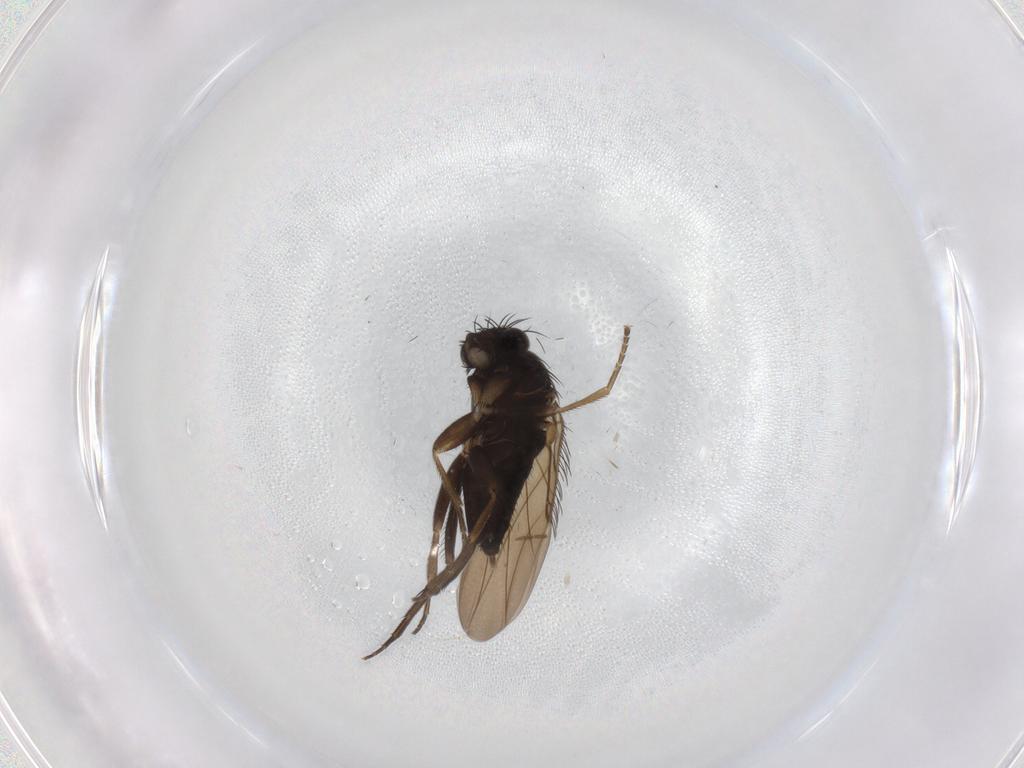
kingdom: Animalia
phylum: Arthropoda
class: Insecta
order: Diptera
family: Phoridae
